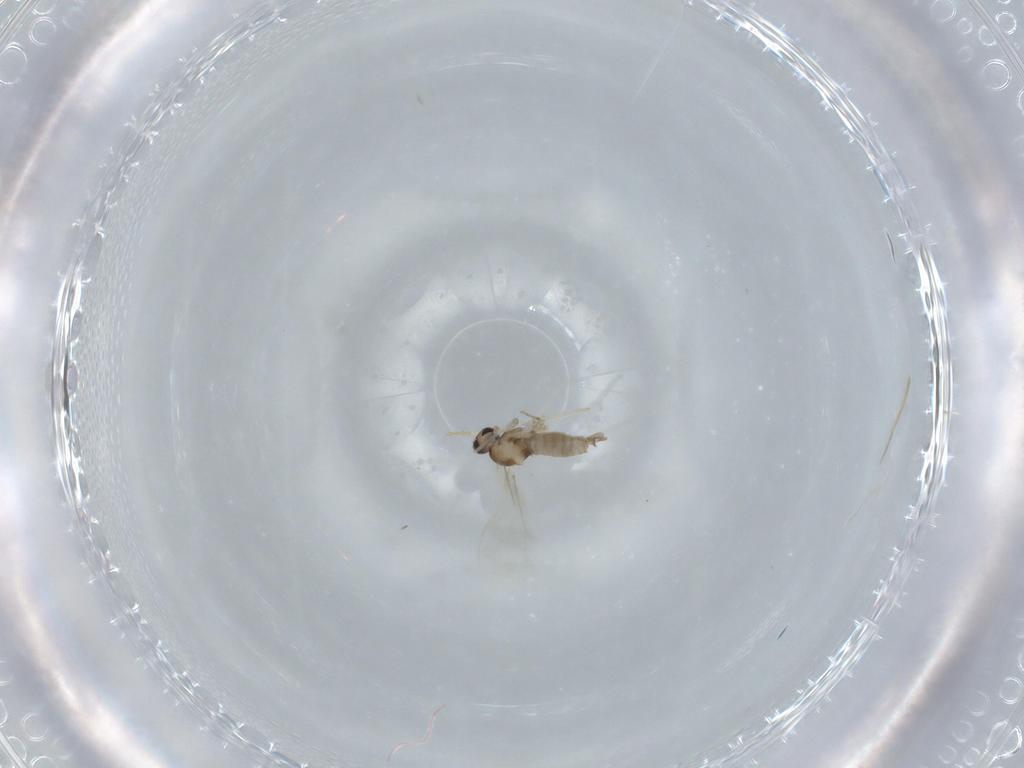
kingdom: Animalia
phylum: Arthropoda
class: Insecta
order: Diptera
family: Cecidomyiidae
